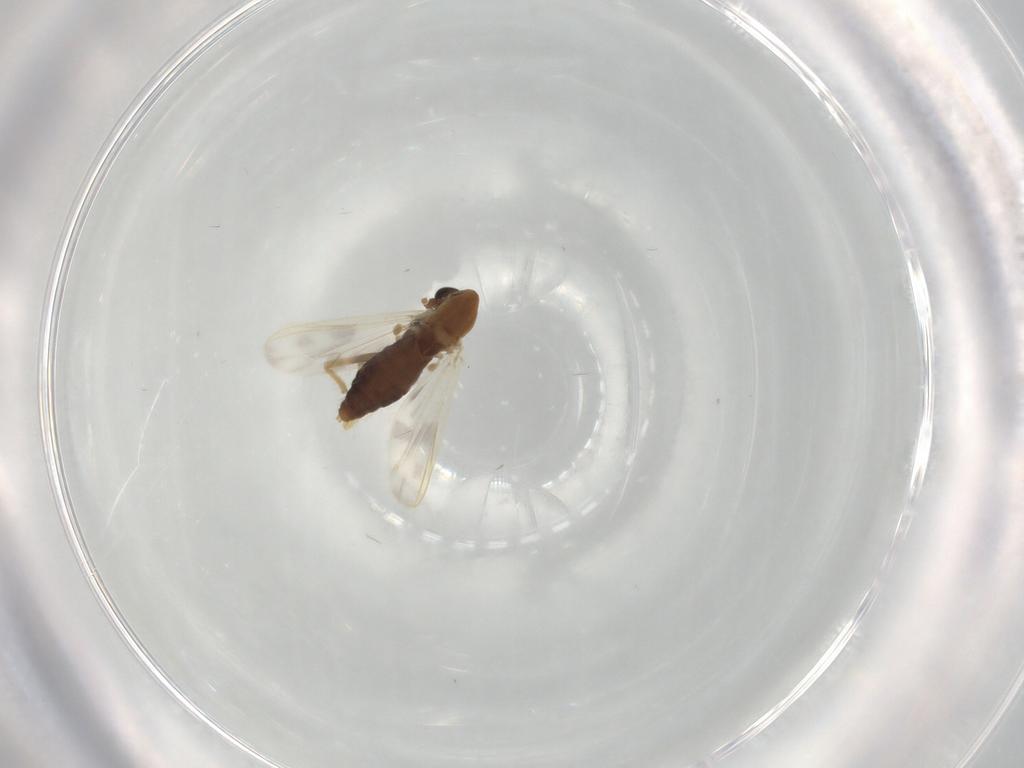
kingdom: Animalia
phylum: Arthropoda
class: Insecta
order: Diptera
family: Chironomidae
